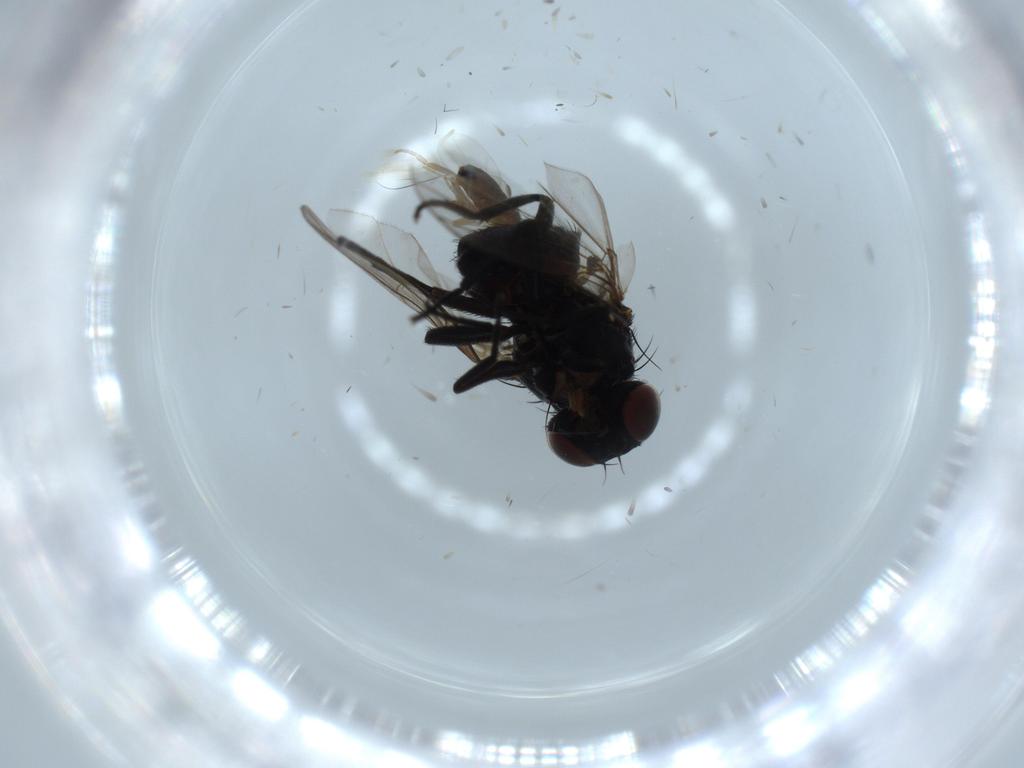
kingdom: Animalia
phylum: Arthropoda
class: Insecta
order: Diptera
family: Agromyzidae
